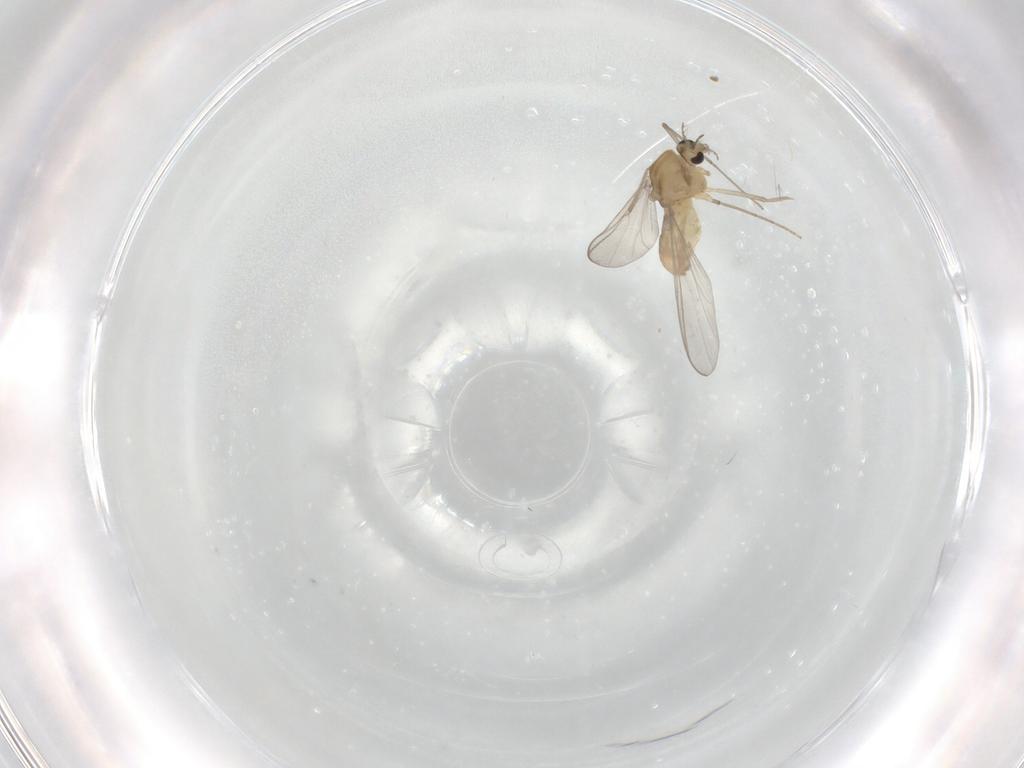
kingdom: Animalia
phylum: Arthropoda
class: Insecta
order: Diptera
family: Chironomidae
